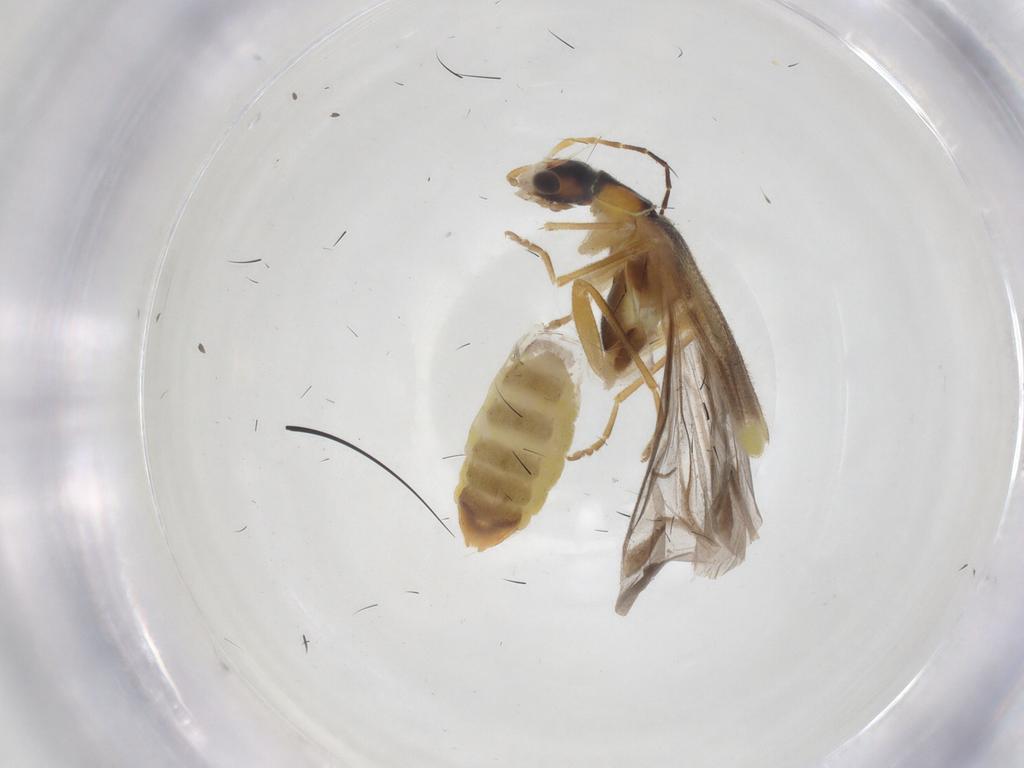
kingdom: Animalia
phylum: Arthropoda
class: Insecta
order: Coleoptera
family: Cantharidae
